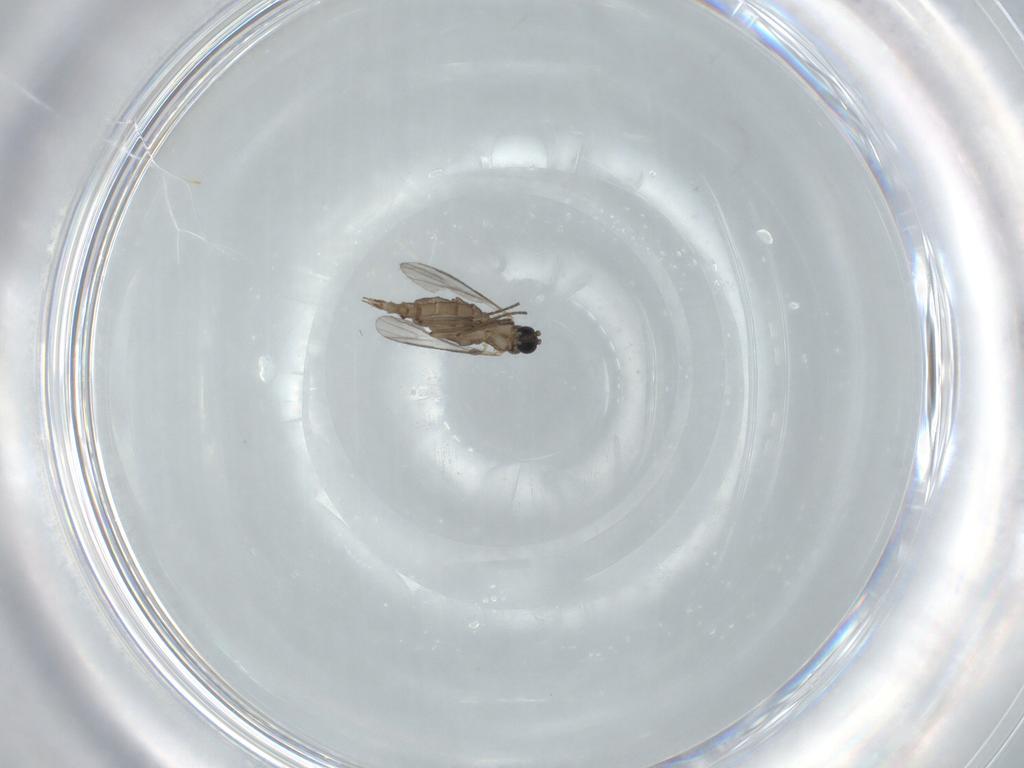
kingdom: Animalia
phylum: Arthropoda
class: Insecta
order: Diptera
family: Sciaridae
